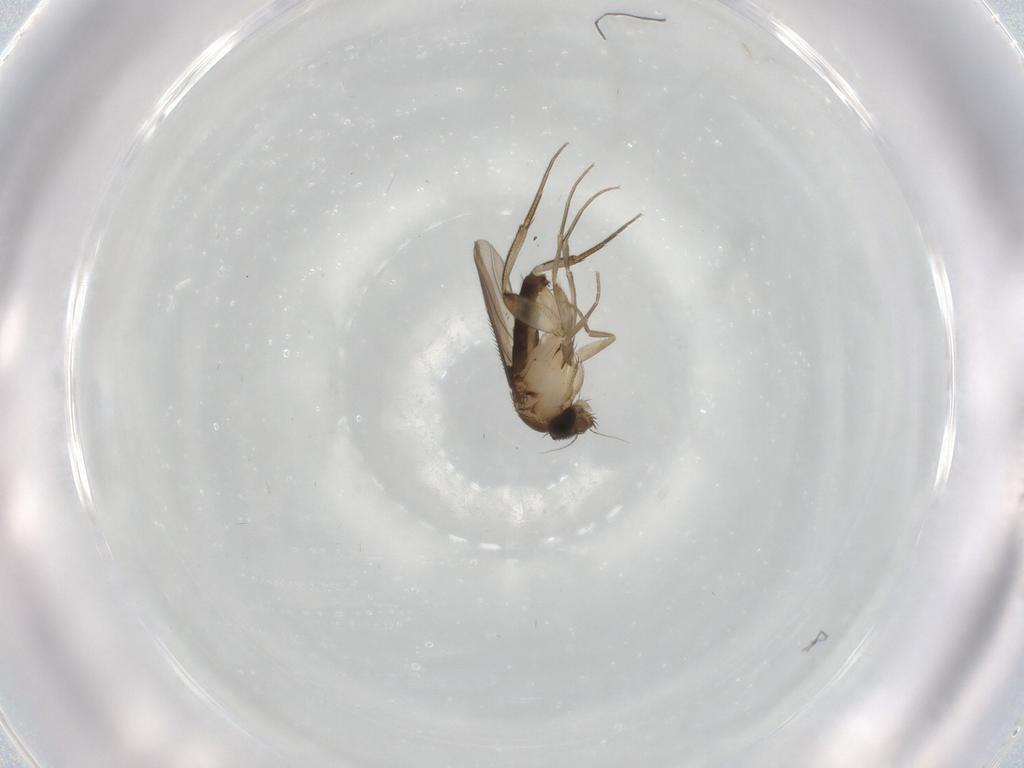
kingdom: Animalia
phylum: Arthropoda
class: Insecta
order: Diptera
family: Phoridae
